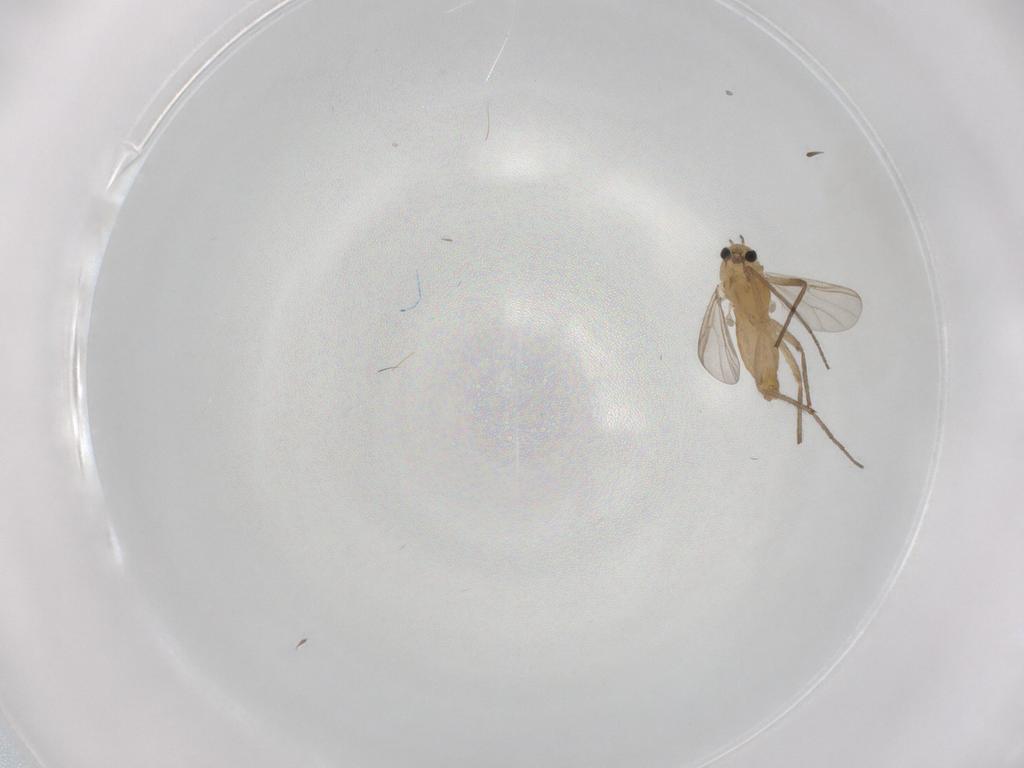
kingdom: Animalia
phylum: Arthropoda
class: Insecta
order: Diptera
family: Chironomidae
